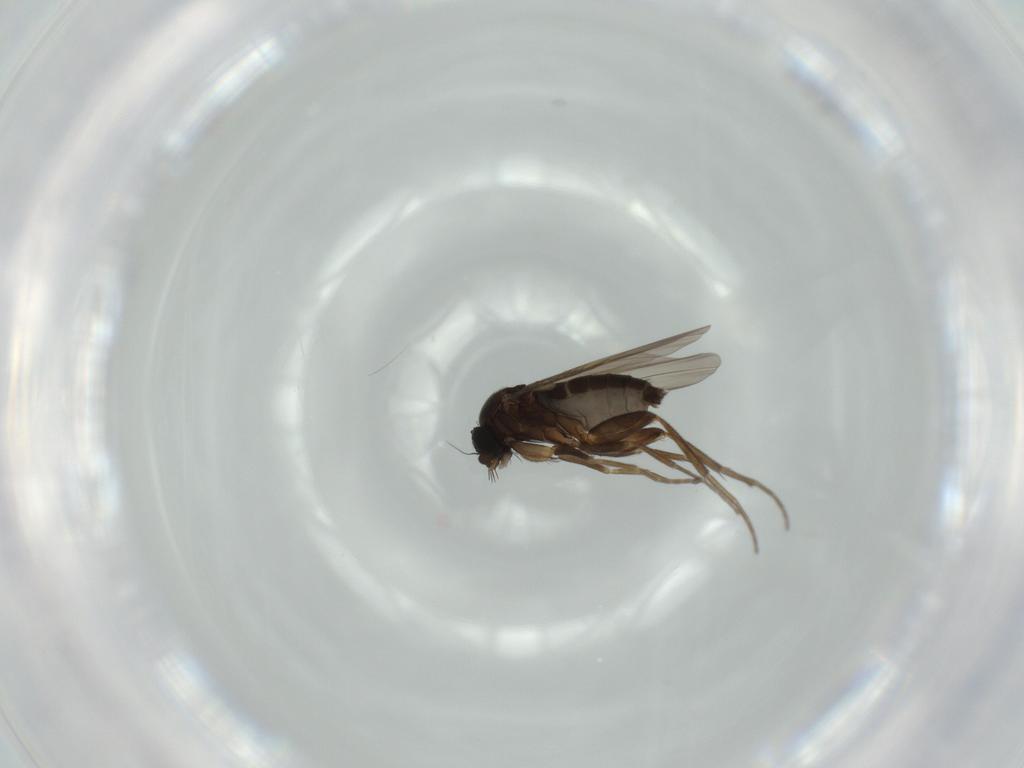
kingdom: Animalia
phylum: Arthropoda
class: Insecta
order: Diptera
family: Phoridae
